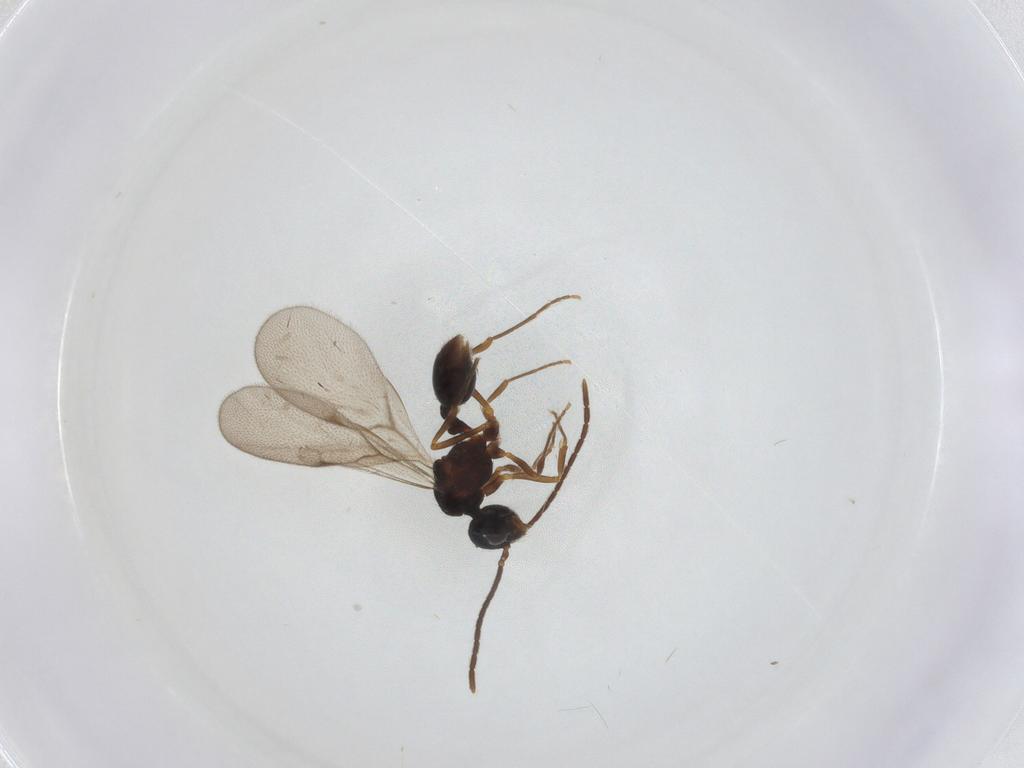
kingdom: Animalia
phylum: Arthropoda
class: Insecta
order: Hymenoptera
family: Formicidae
